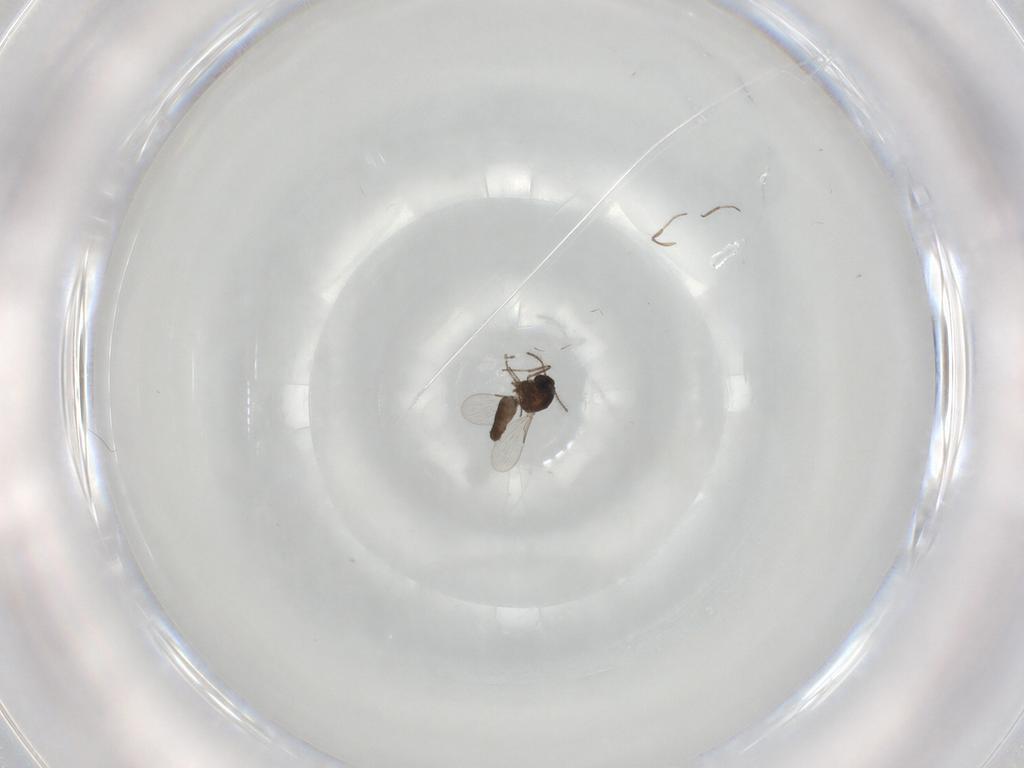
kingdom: Animalia
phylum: Arthropoda
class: Insecta
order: Diptera
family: Ceratopogonidae
